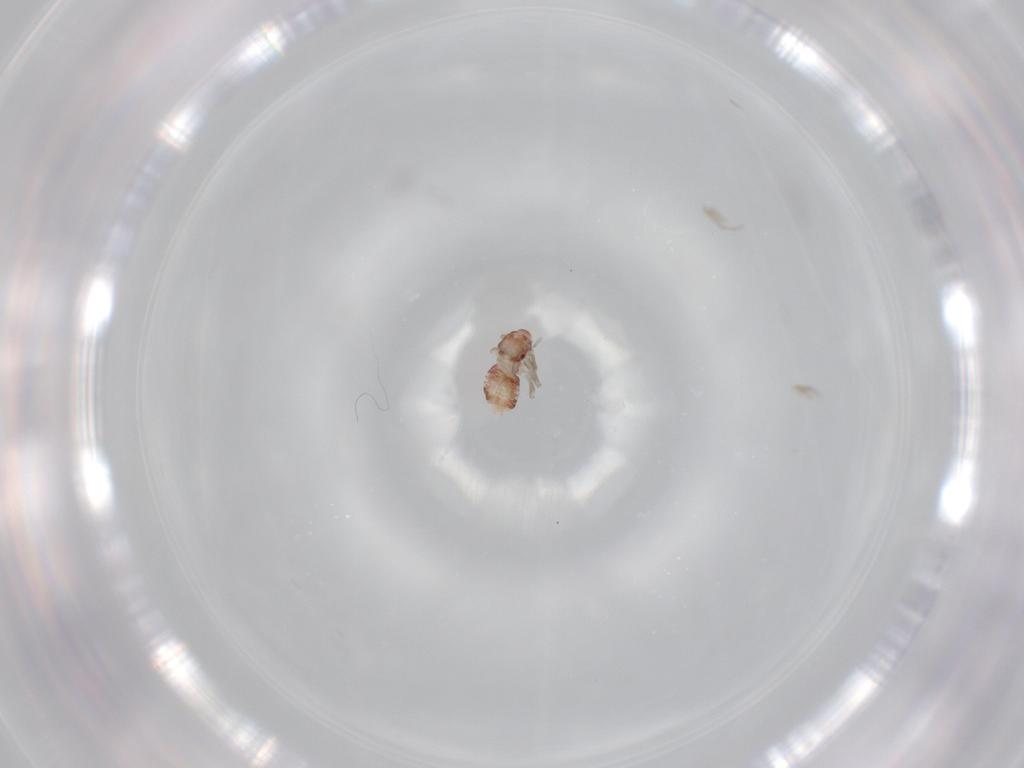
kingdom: Animalia
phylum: Arthropoda
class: Insecta
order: Psocodea
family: Lepidopsocidae
